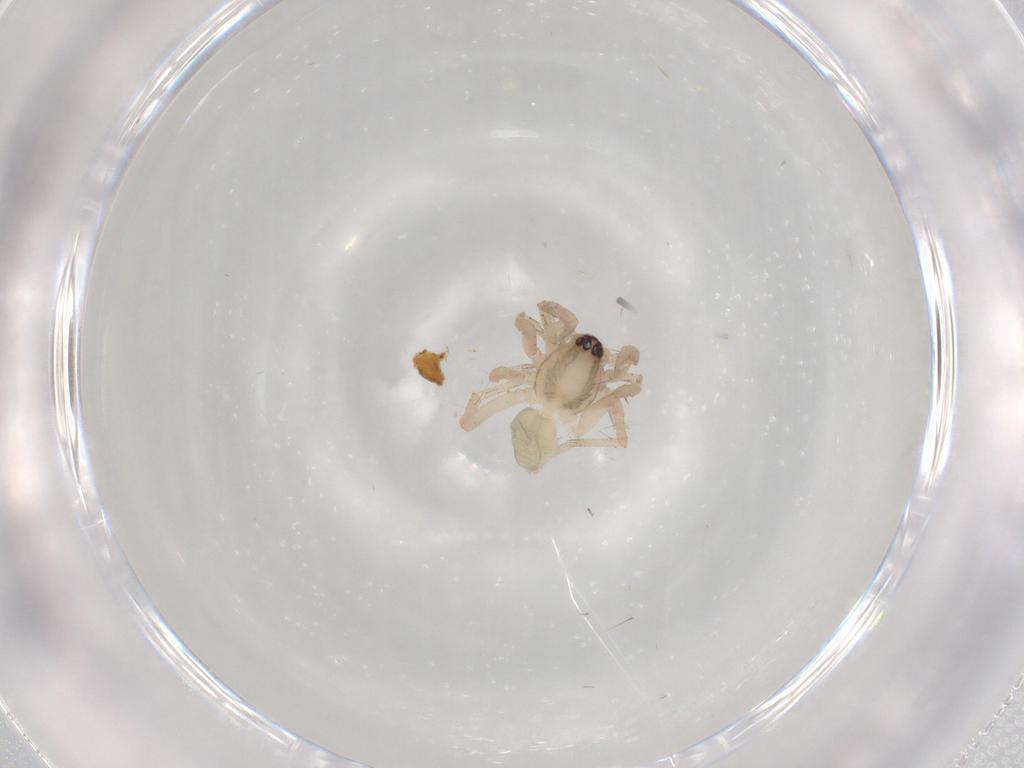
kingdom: Animalia
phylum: Arthropoda
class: Arachnida
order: Araneae
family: Anyphaenidae
